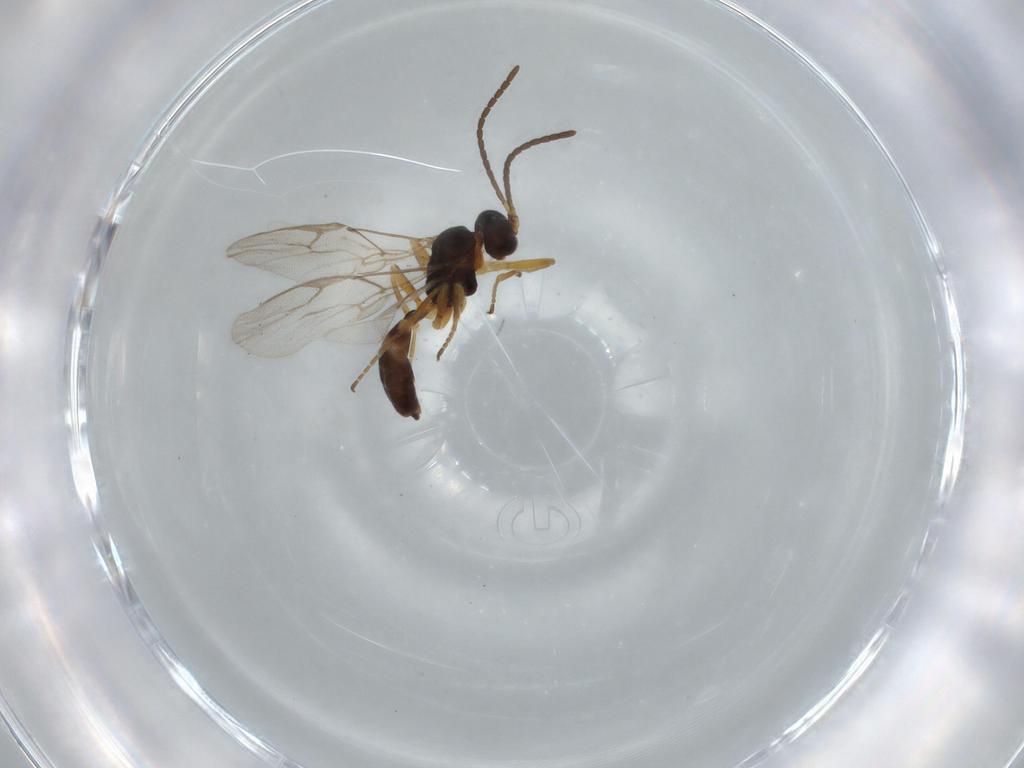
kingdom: Animalia
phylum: Arthropoda
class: Insecta
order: Hymenoptera
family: Braconidae
